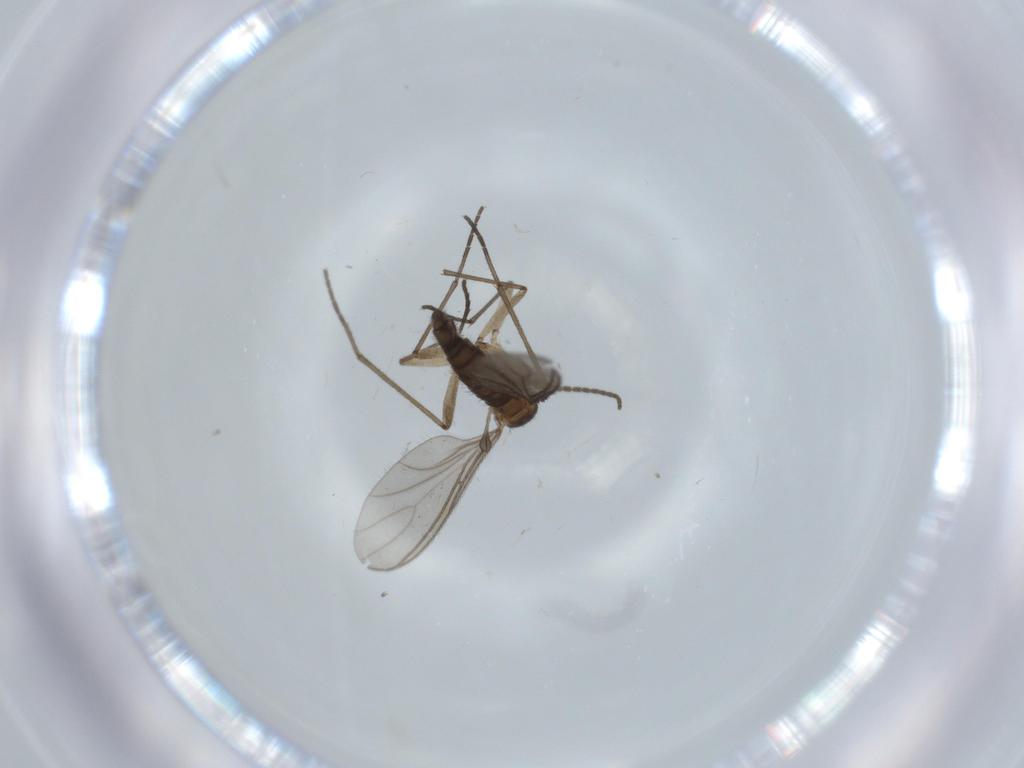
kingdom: Animalia
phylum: Arthropoda
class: Insecta
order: Diptera
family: Sciaridae
